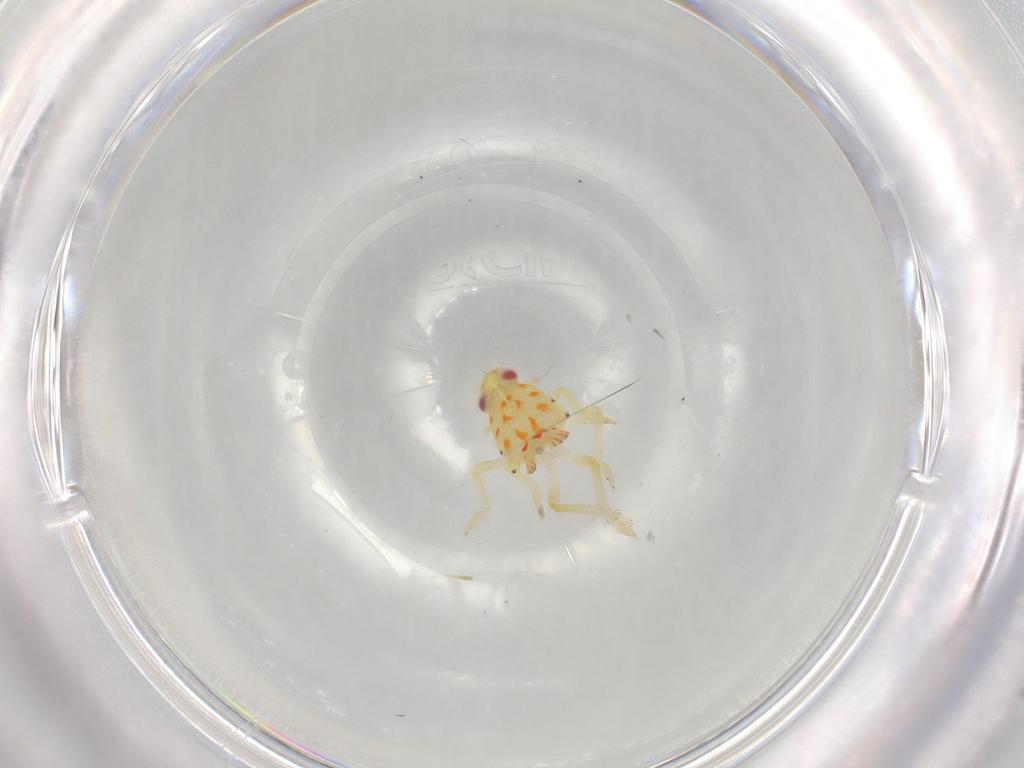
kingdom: Animalia
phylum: Arthropoda
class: Insecta
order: Hemiptera
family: Tropiduchidae
